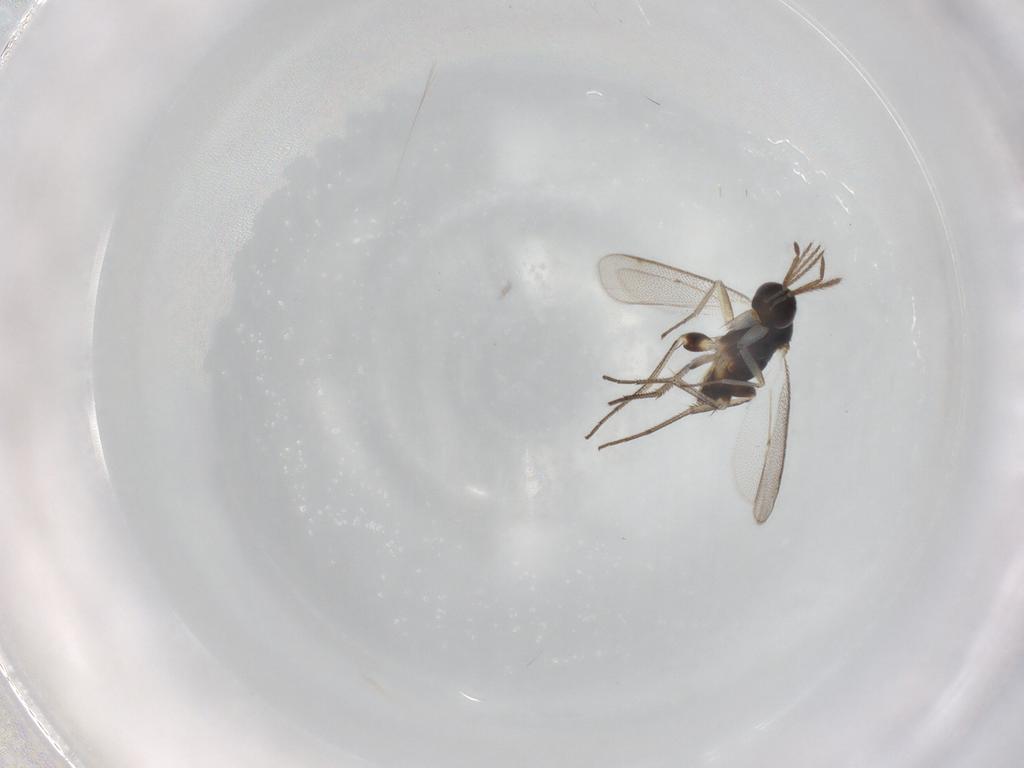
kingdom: Animalia
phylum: Arthropoda
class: Insecta
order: Hymenoptera
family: Eulophidae
